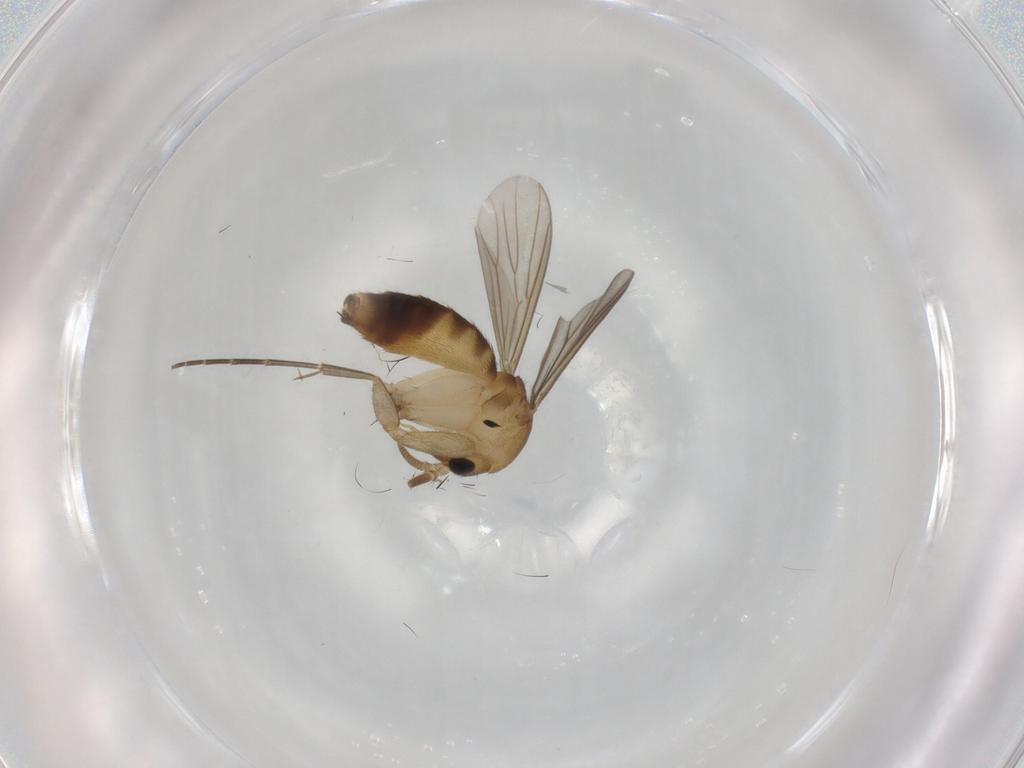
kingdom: Animalia
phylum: Arthropoda
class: Insecta
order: Diptera
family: Mycetophilidae
